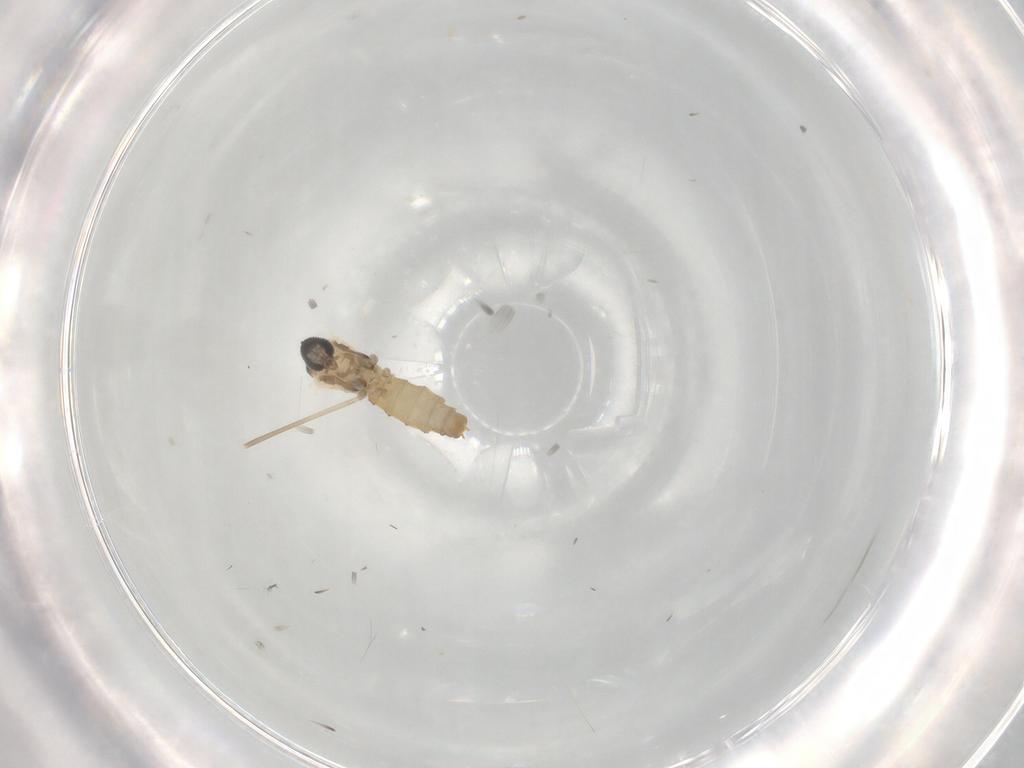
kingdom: Animalia
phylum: Arthropoda
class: Insecta
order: Diptera
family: Cecidomyiidae
